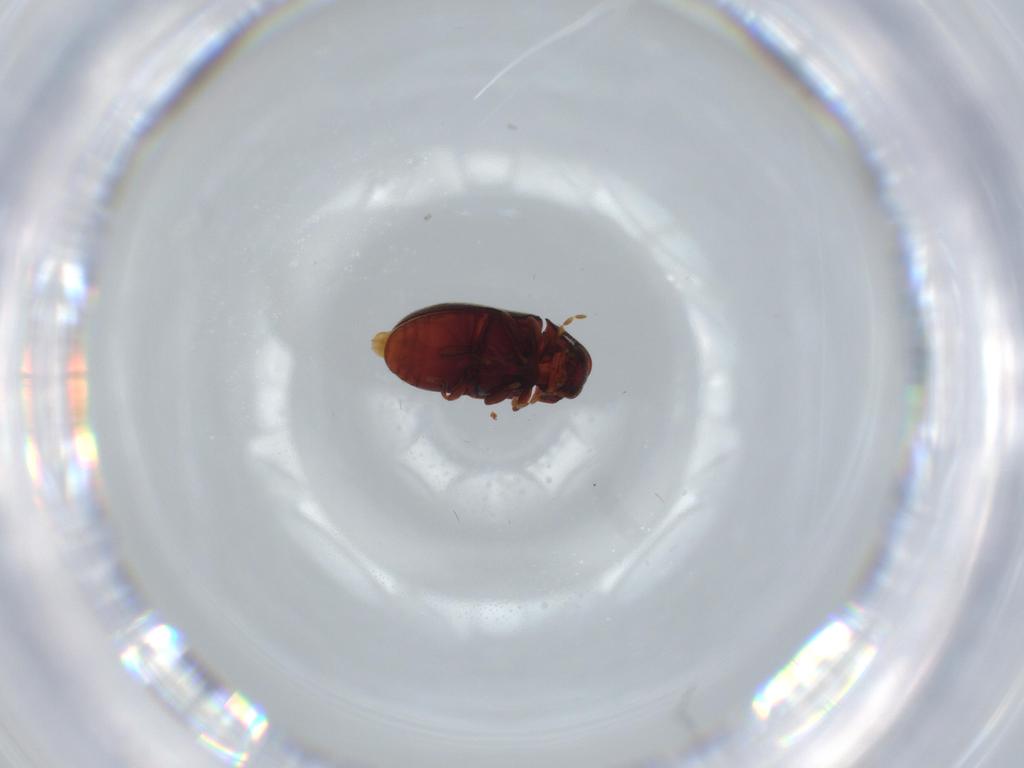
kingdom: Animalia
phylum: Arthropoda
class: Insecta
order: Coleoptera
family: Ptinidae
